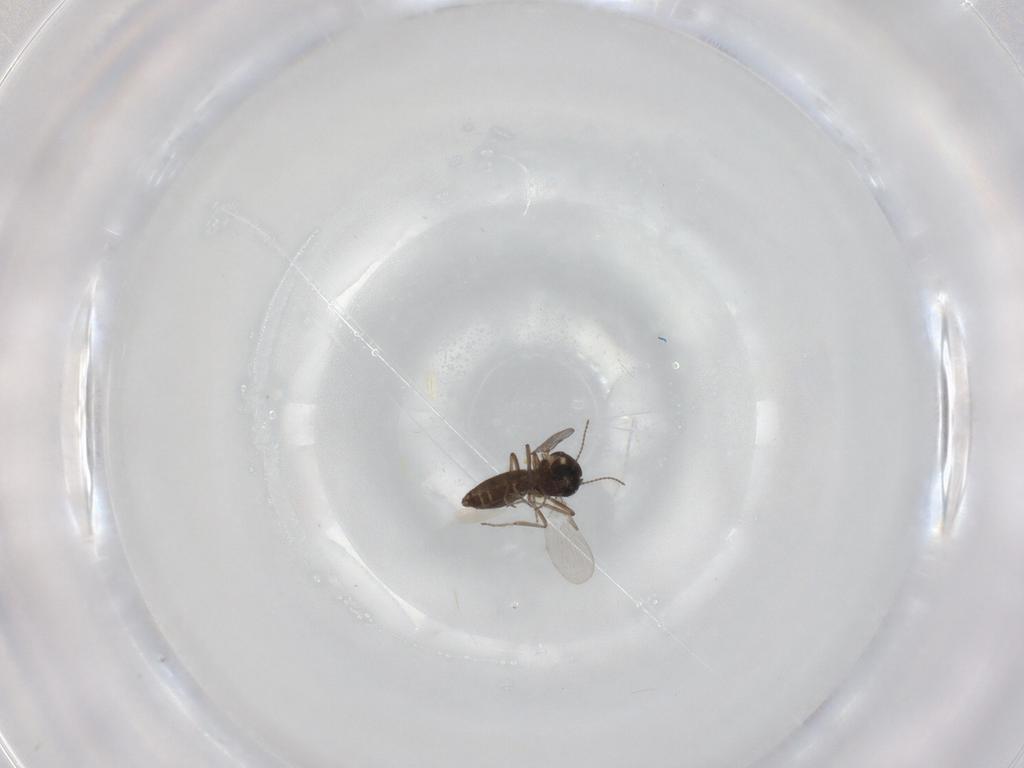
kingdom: Animalia
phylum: Arthropoda
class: Insecta
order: Diptera
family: Ceratopogonidae
